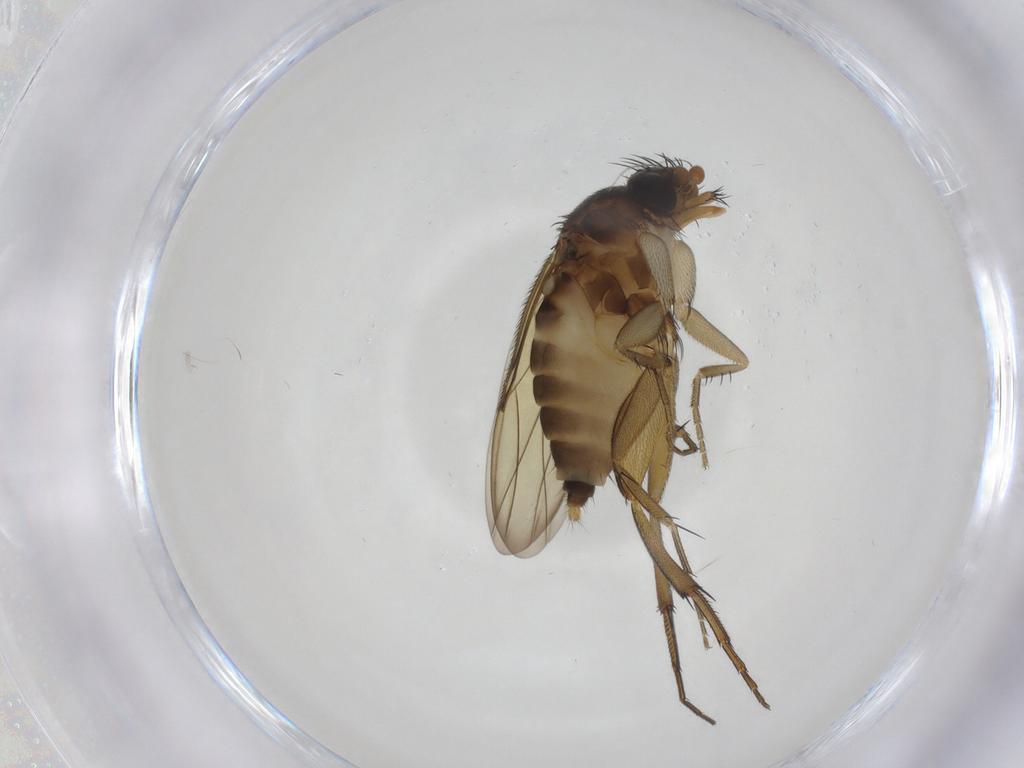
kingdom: Animalia
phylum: Arthropoda
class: Insecta
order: Diptera
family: Phoridae
